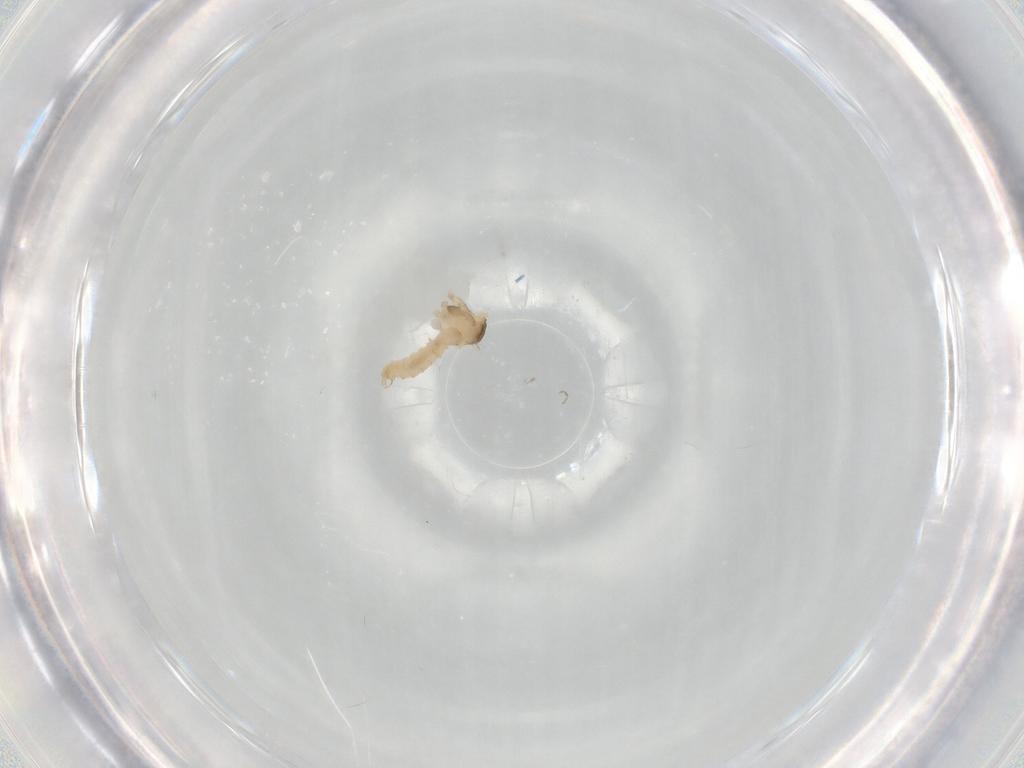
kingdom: Animalia
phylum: Arthropoda
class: Insecta
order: Diptera
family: Cecidomyiidae
